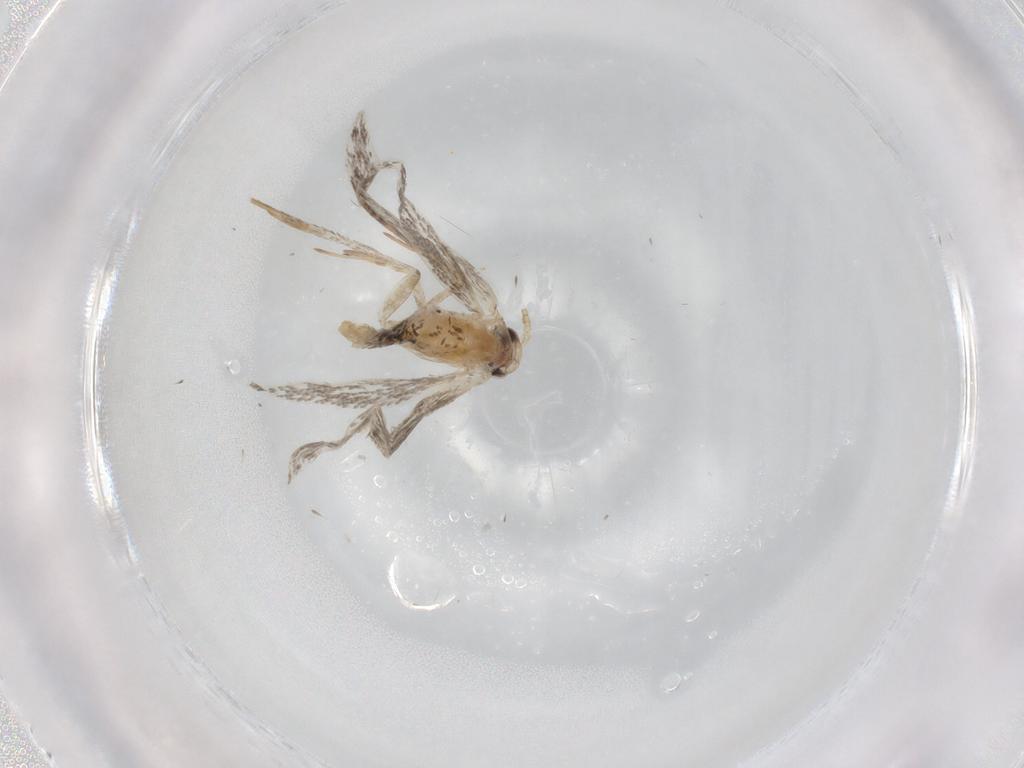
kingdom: Animalia
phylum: Arthropoda
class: Insecta
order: Lepidoptera
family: Tineidae
